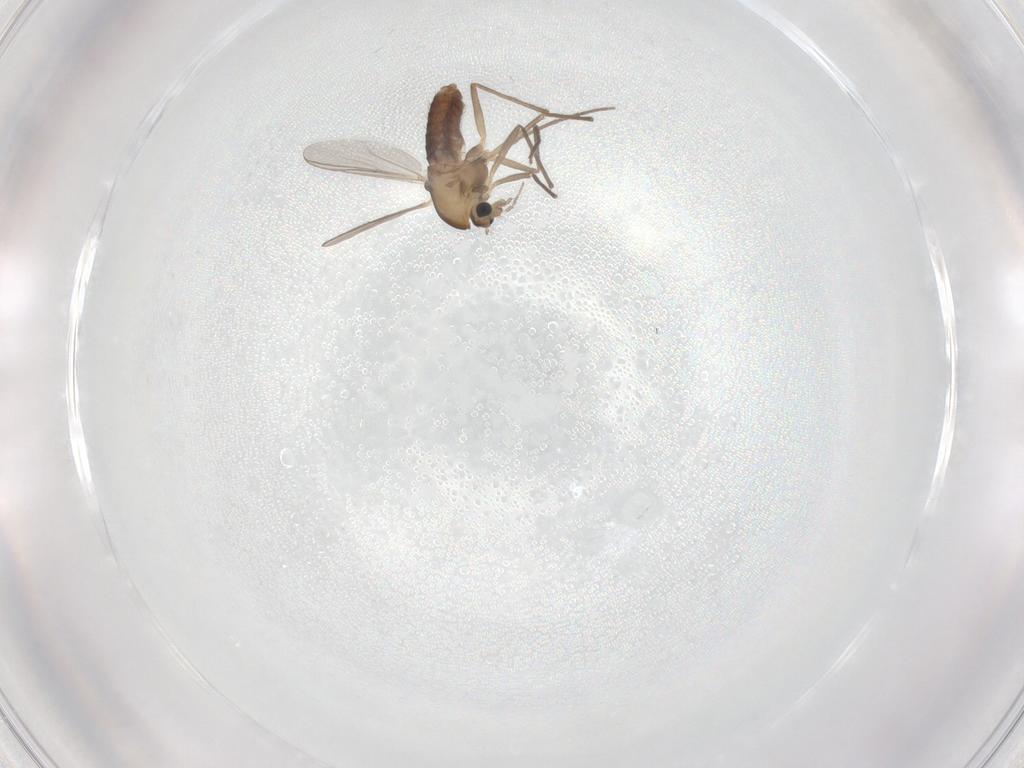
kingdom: Animalia
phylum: Arthropoda
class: Insecta
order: Diptera
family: Chironomidae
